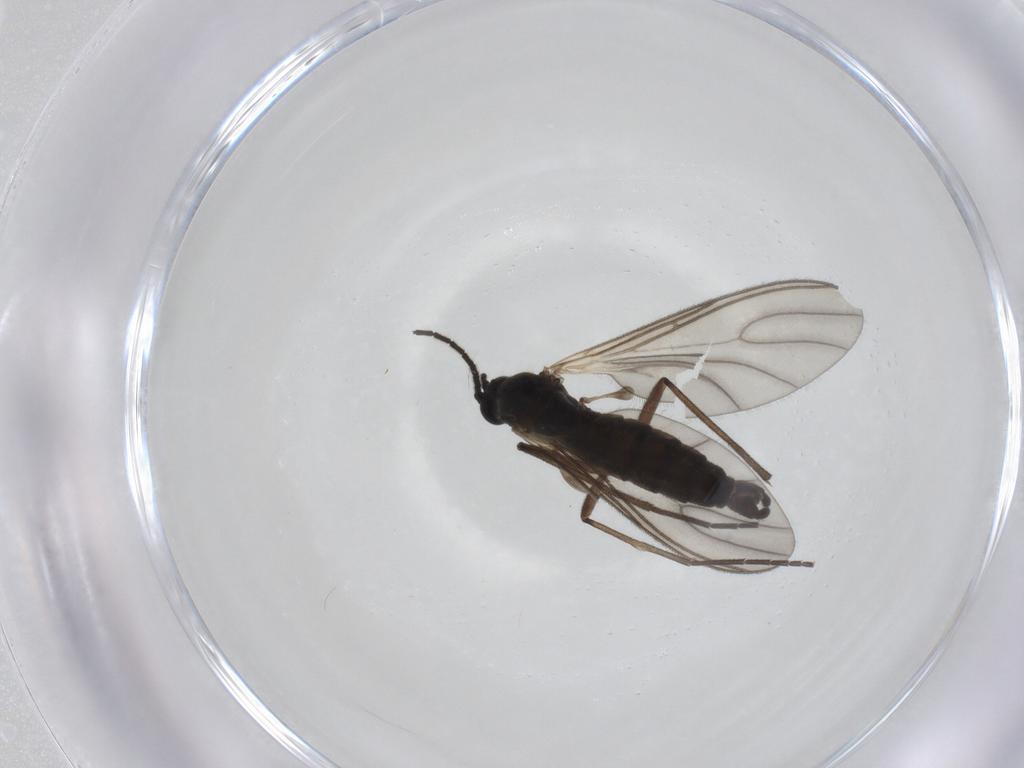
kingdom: Animalia
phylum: Arthropoda
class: Insecta
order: Diptera
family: Sciaridae
